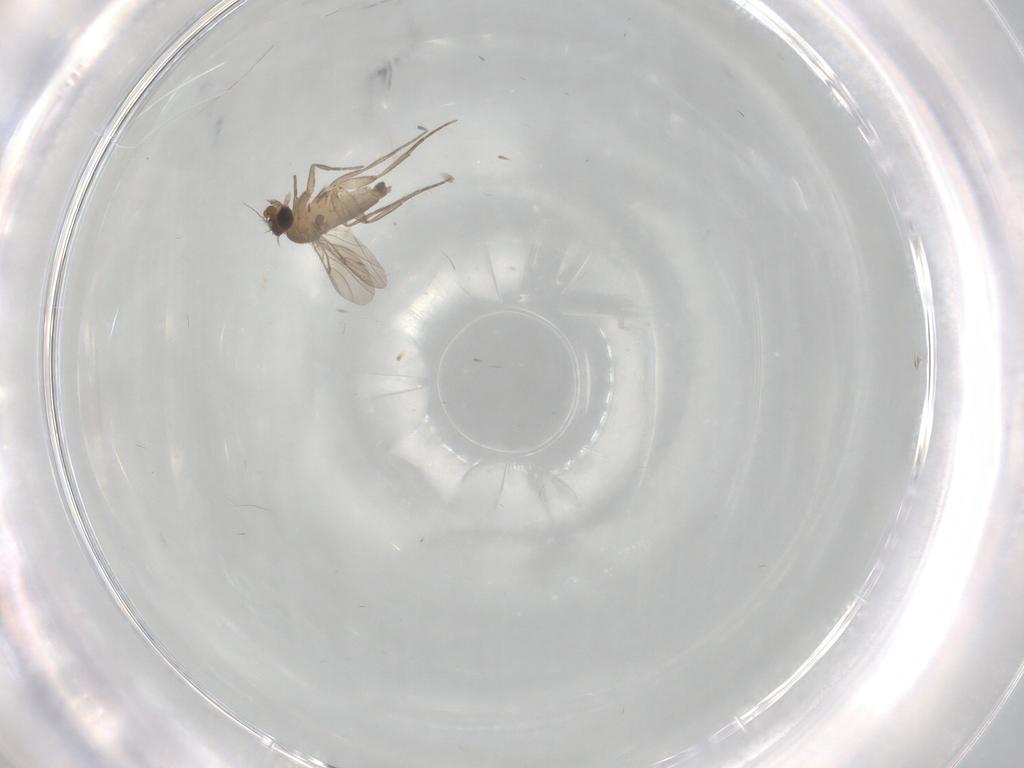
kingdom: Animalia
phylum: Arthropoda
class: Insecta
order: Diptera
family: Phoridae
